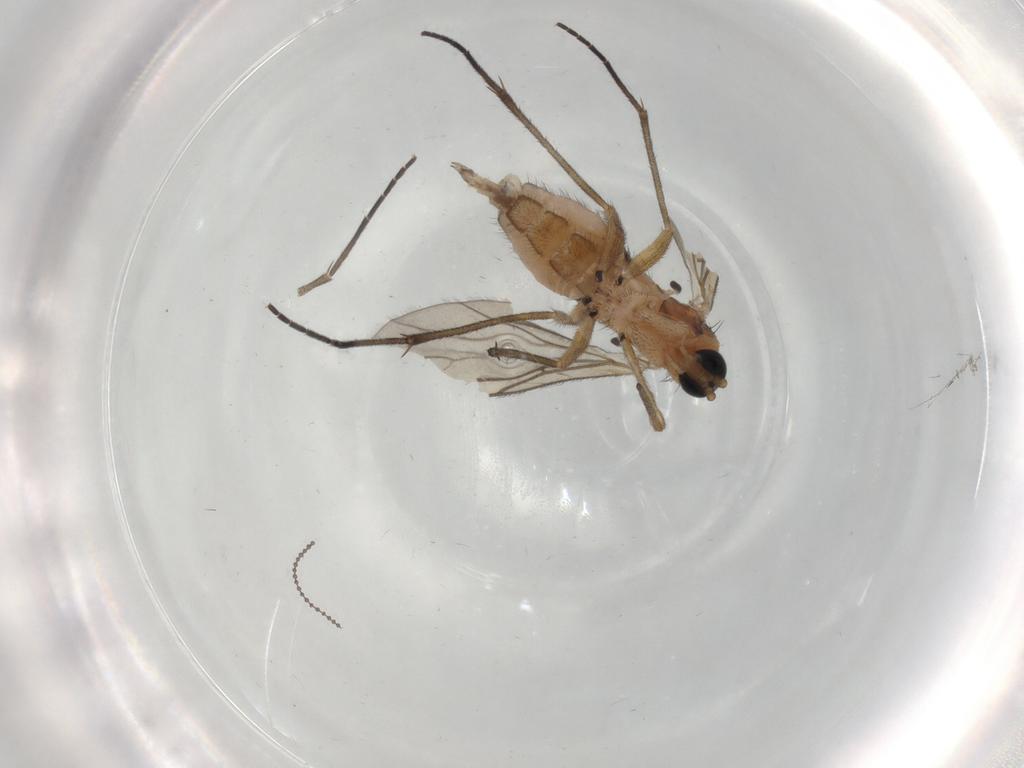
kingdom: Animalia
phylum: Arthropoda
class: Insecta
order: Diptera
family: Sciaridae
